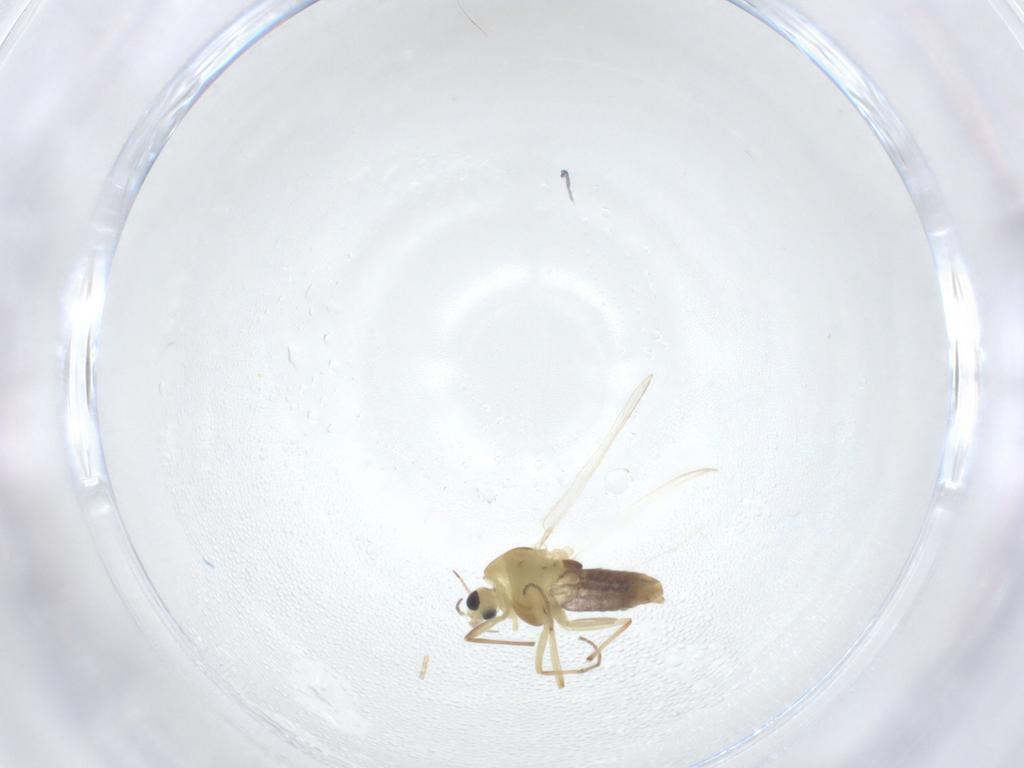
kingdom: Animalia
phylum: Arthropoda
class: Insecta
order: Diptera
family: Chironomidae
